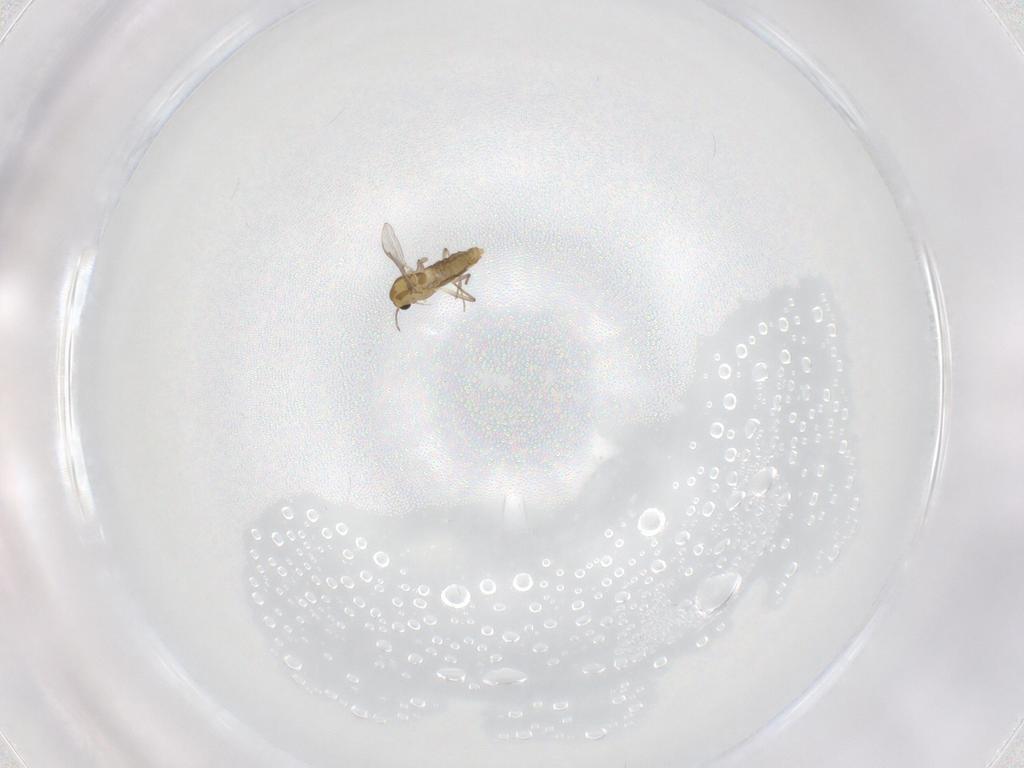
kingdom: Animalia
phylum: Arthropoda
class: Insecta
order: Diptera
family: Chironomidae
